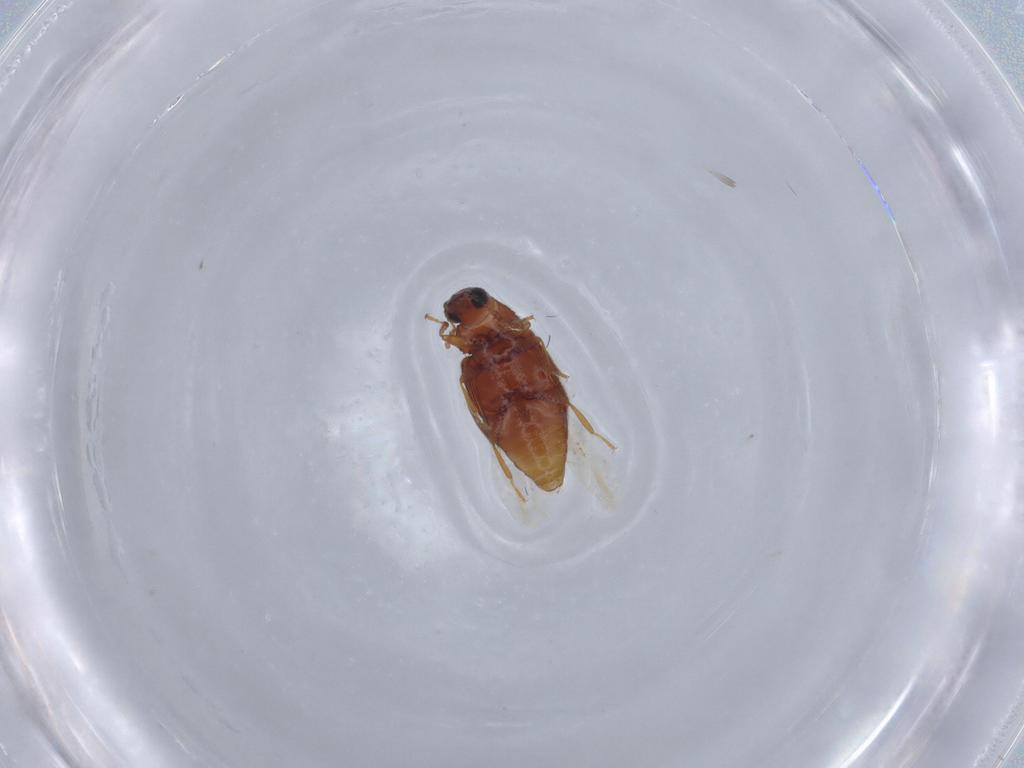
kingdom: Animalia
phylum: Arthropoda
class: Insecta
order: Coleoptera
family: Latridiidae
